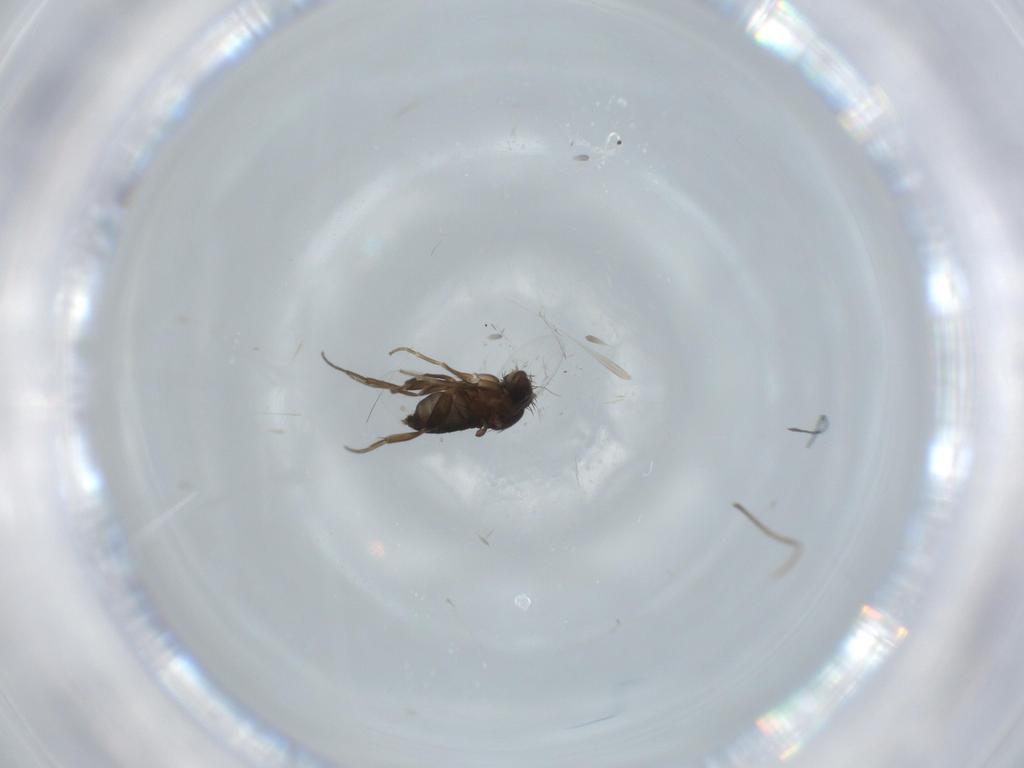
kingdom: Animalia
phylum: Arthropoda
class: Insecta
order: Diptera
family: Phoridae
